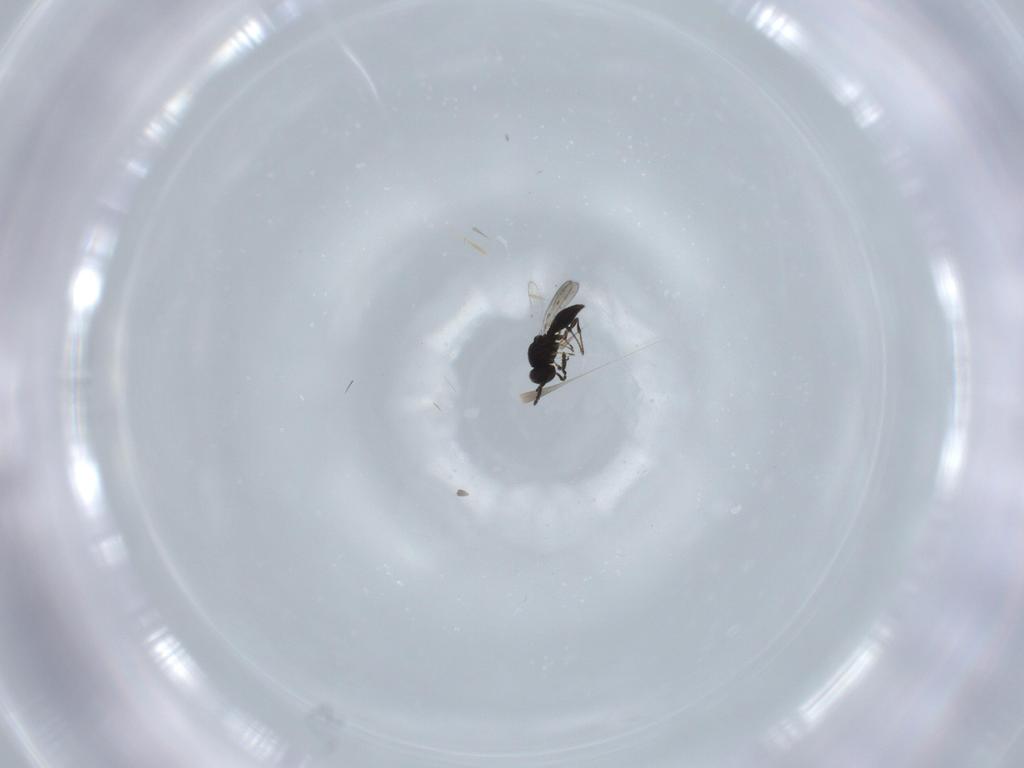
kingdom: Animalia
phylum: Arthropoda
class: Insecta
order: Hymenoptera
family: Platygastridae
